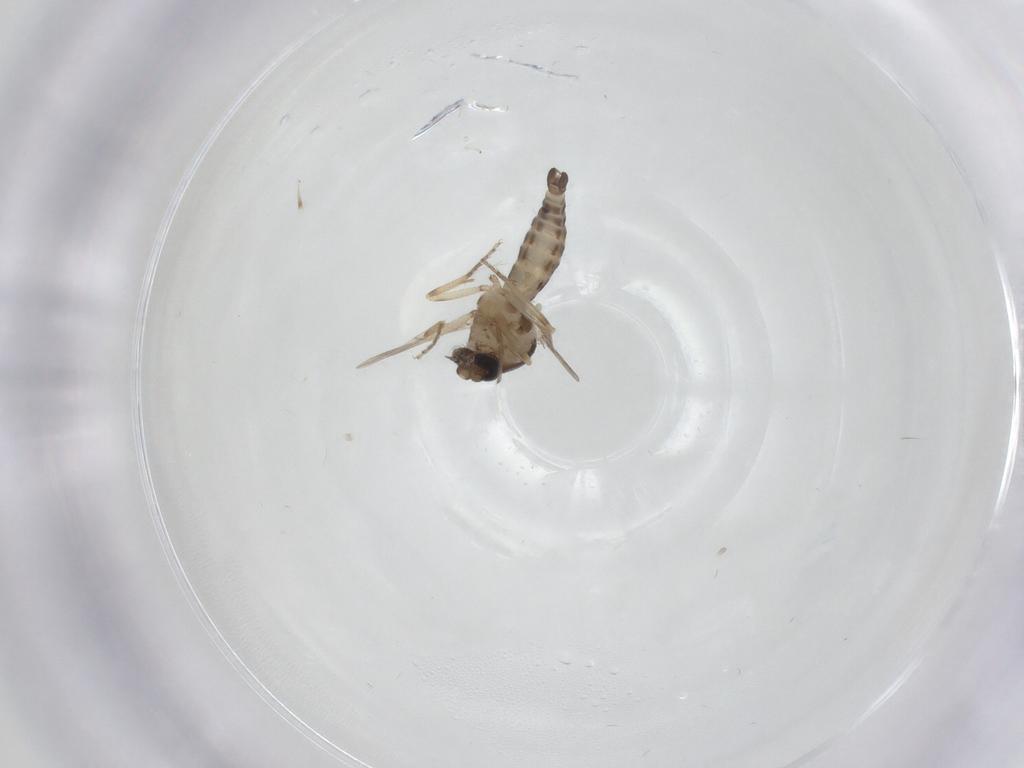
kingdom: Animalia
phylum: Arthropoda
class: Insecta
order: Diptera
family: Ceratopogonidae
